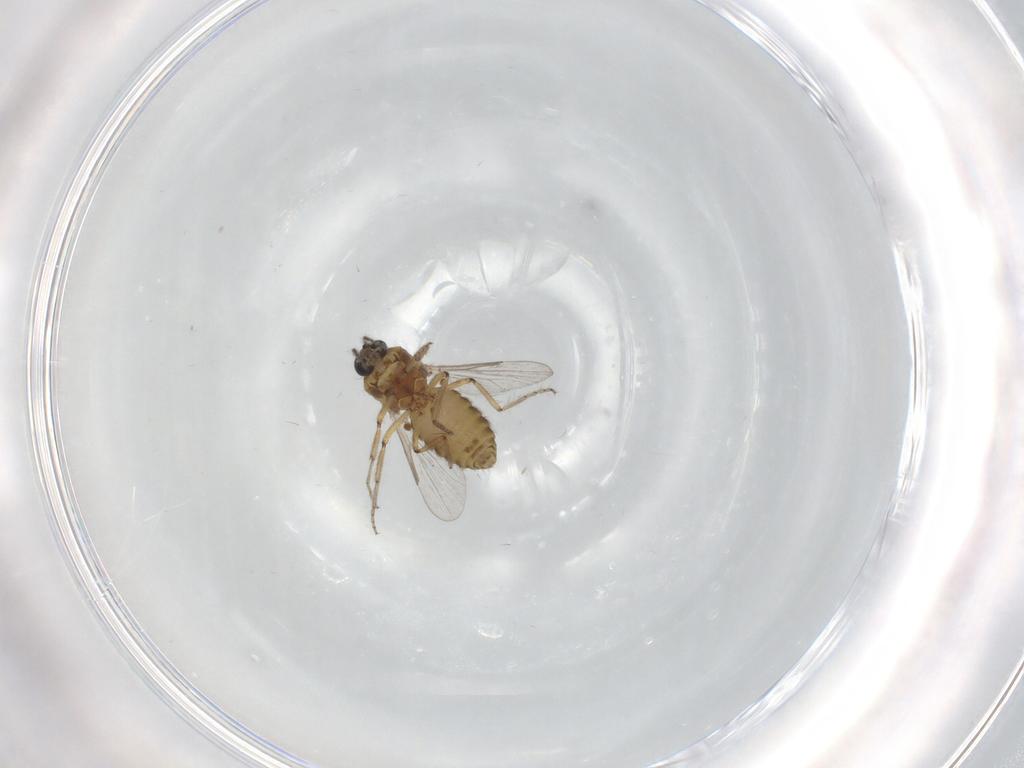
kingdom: Animalia
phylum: Arthropoda
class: Insecta
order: Diptera
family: Ceratopogonidae
